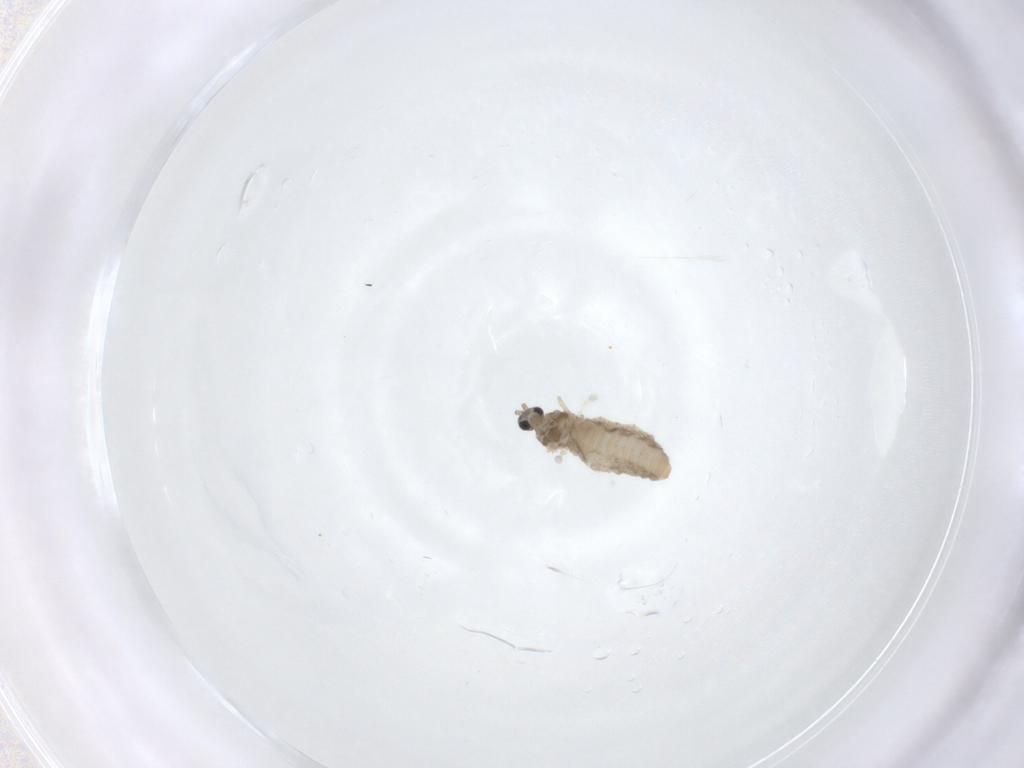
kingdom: Animalia
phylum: Arthropoda
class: Insecta
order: Diptera
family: Cecidomyiidae
